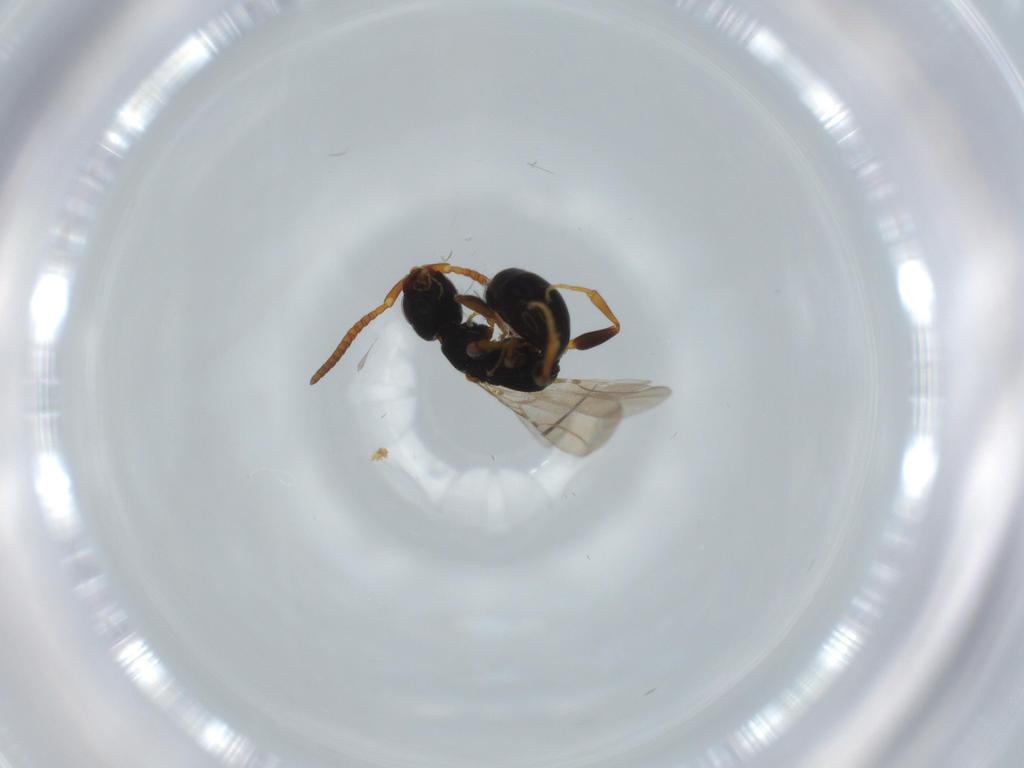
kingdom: Animalia
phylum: Arthropoda
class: Insecta
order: Hymenoptera
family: Bethylidae
